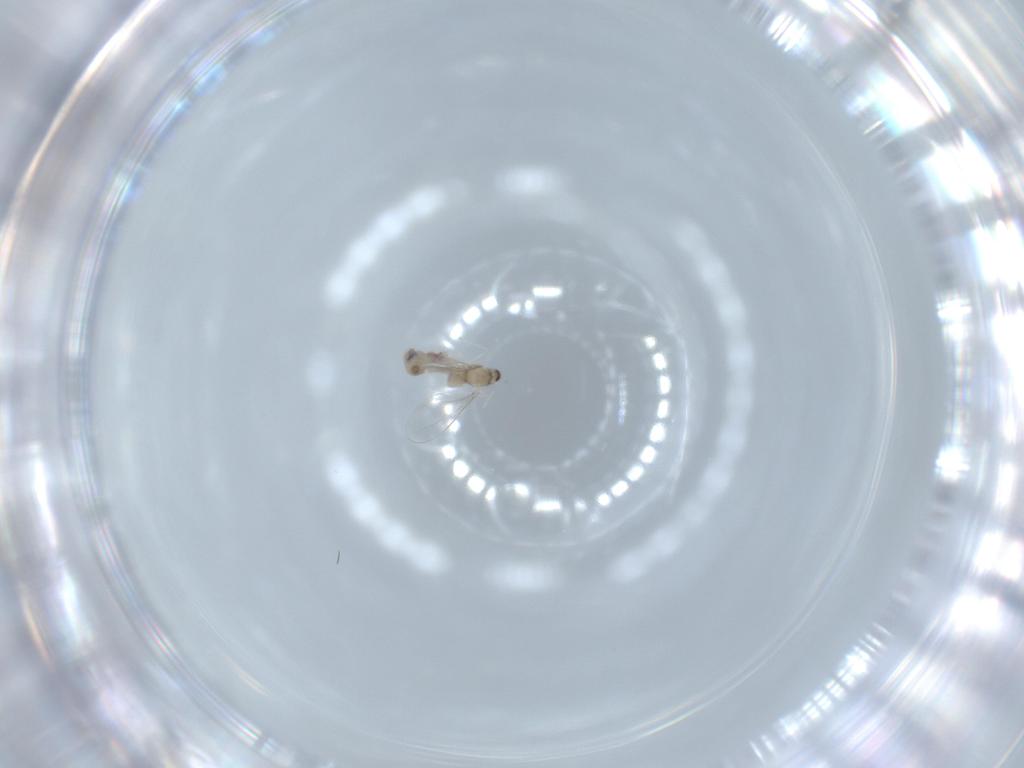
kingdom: Animalia
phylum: Arthropoda
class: Insecta
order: Diptera
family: Cecidomyiidae
